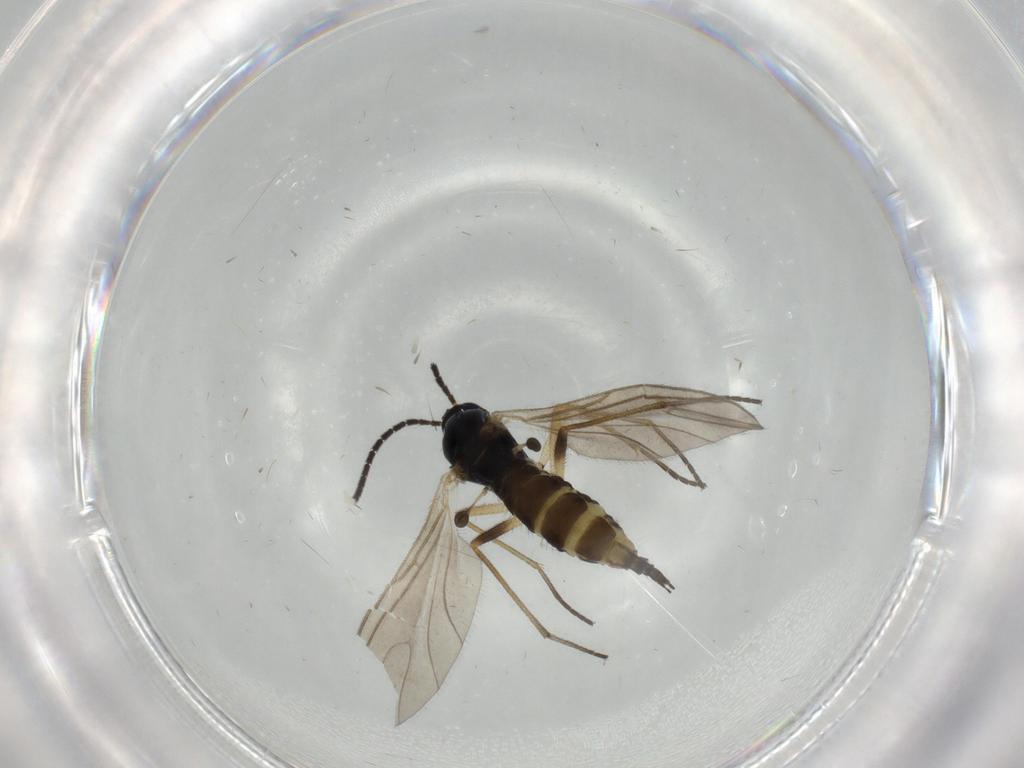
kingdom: Animalia
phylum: Arthropoda
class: Insecta
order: Diptera
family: Sciaridae
